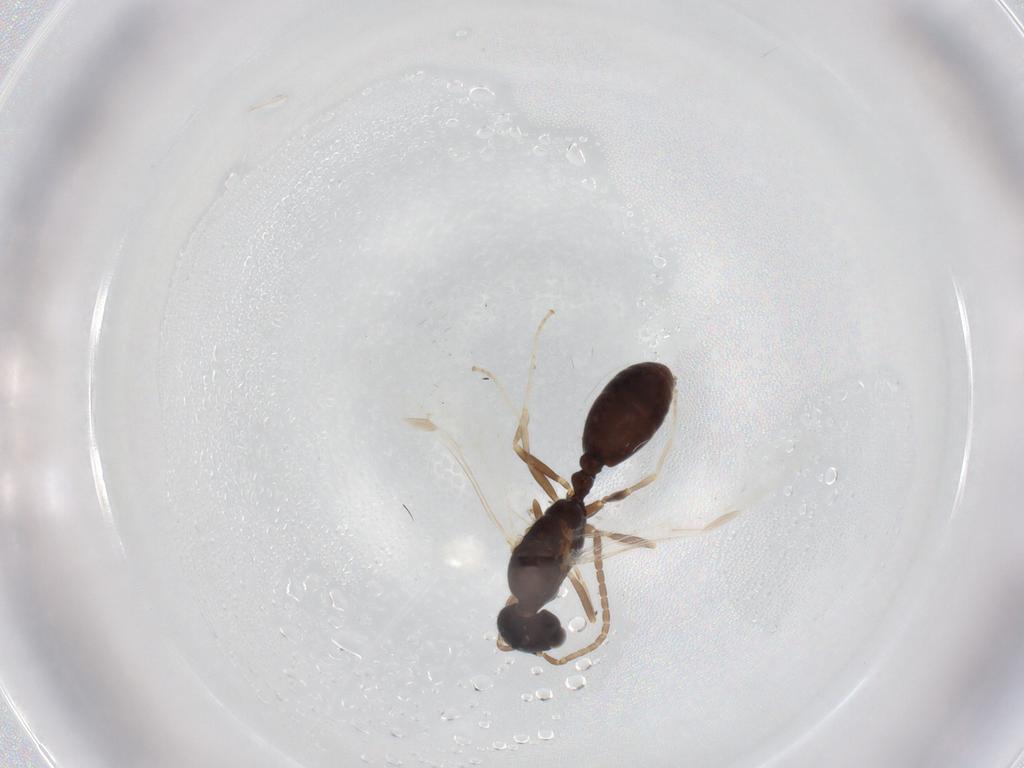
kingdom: Animalia
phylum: Arthropoda
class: Insecta
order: Hymenoptera
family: Formicidae
